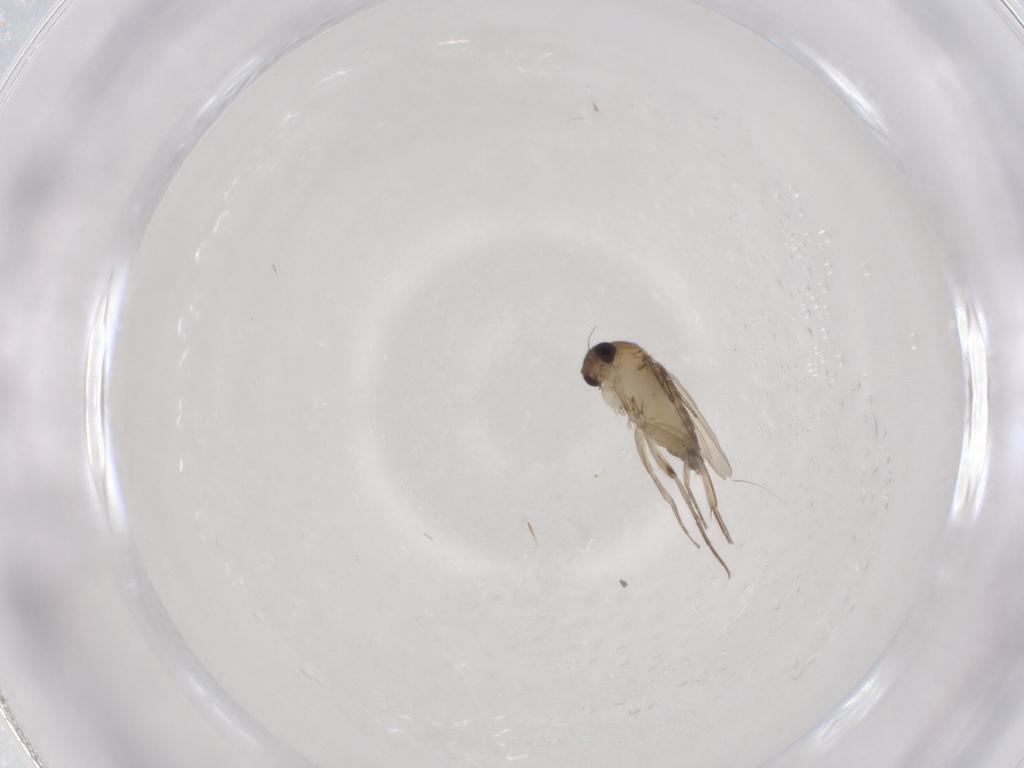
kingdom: Animalia
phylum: Arthropoda
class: Insecta
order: Diptera
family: Phoridae
